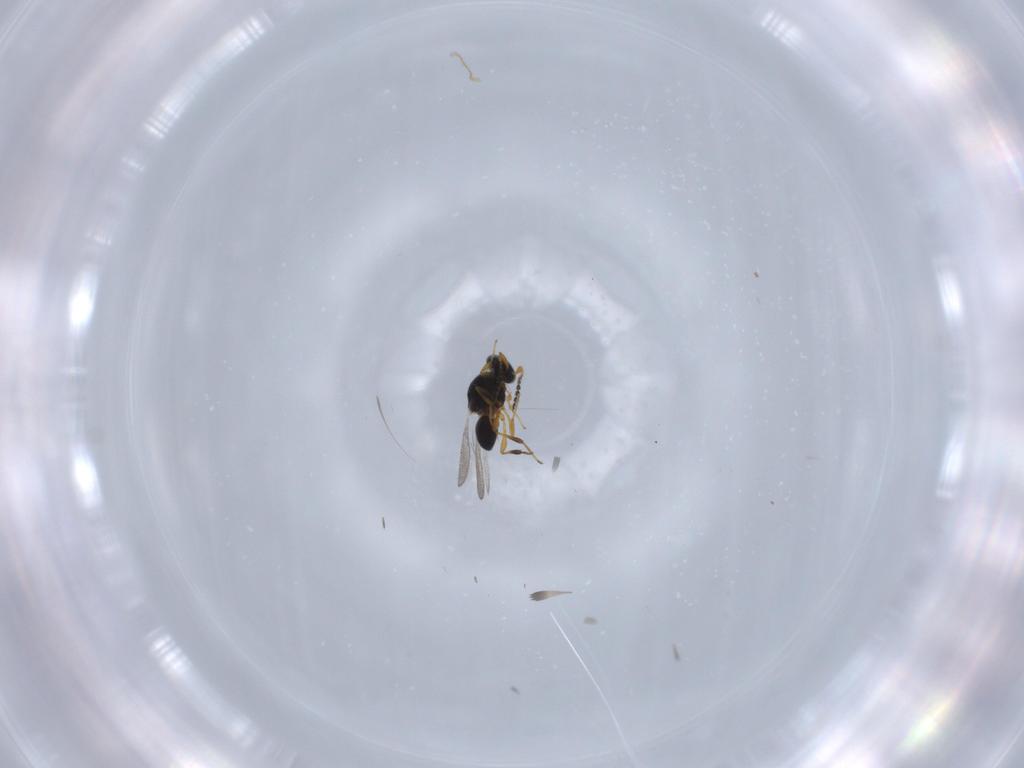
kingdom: Animalia
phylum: Arthropoda
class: Insecta
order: Hymenoptera
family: Platygastridae
